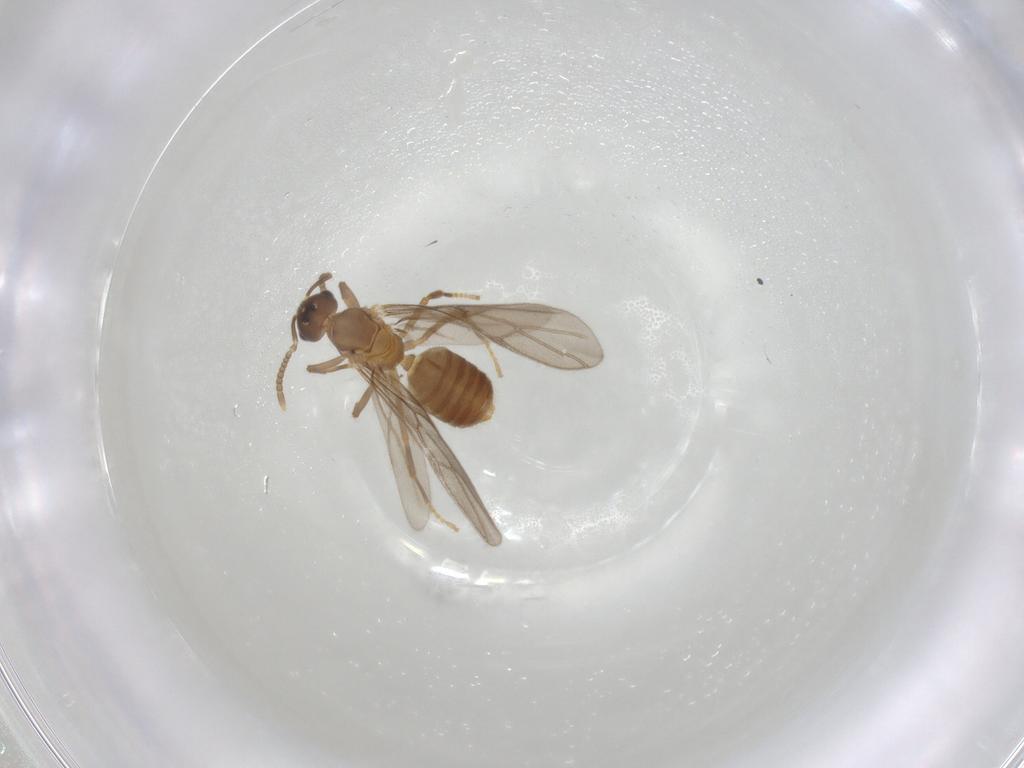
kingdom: Animalia
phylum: Arthropoda
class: Insecta
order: Hymenoptera
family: Formicidae
